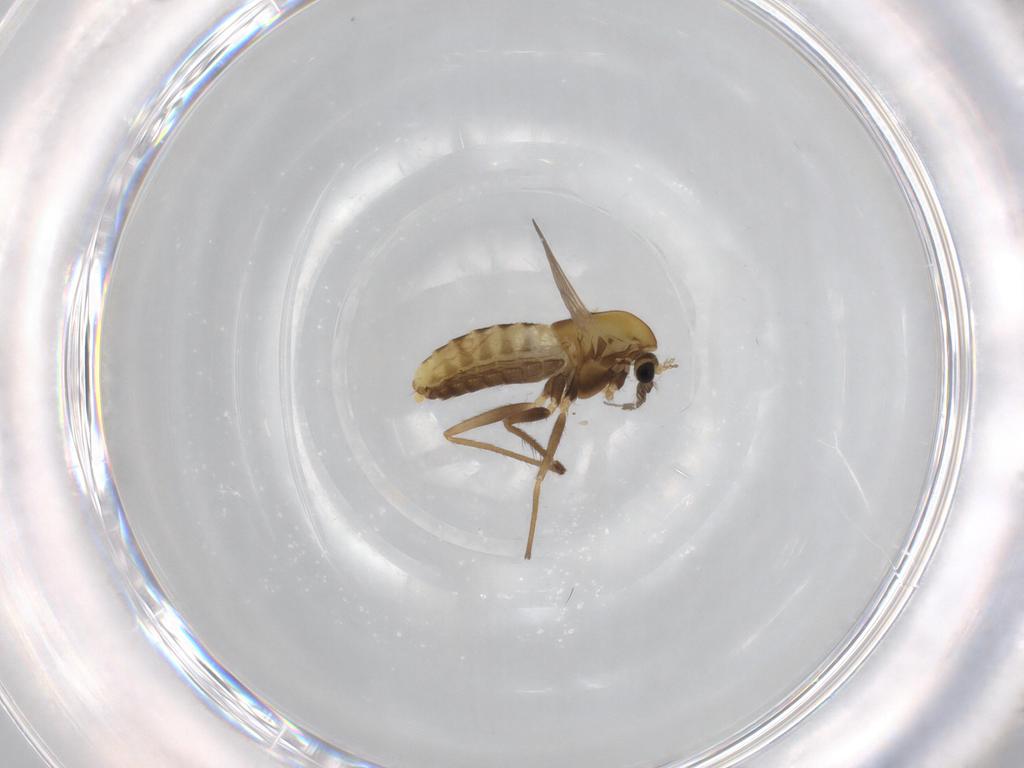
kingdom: Animalia
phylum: Arthropoda
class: Insecta
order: Diptera
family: Chironomidae
